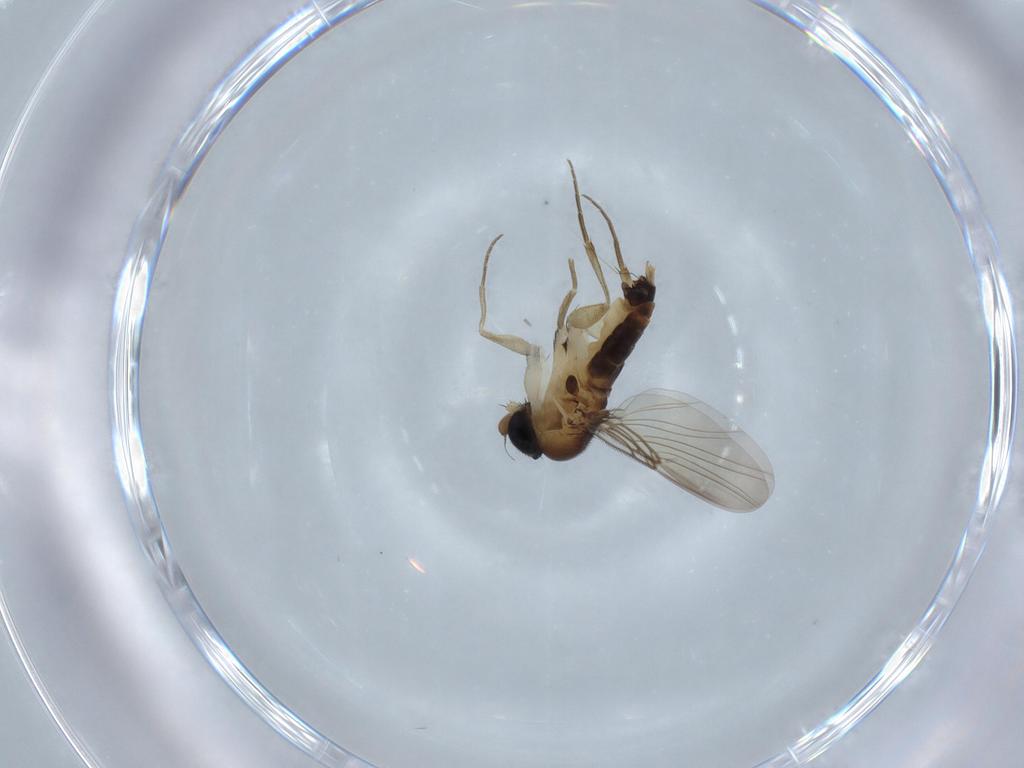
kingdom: Animalia
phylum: Arthropoda
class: Insecta
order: Diptera
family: Phoridae
